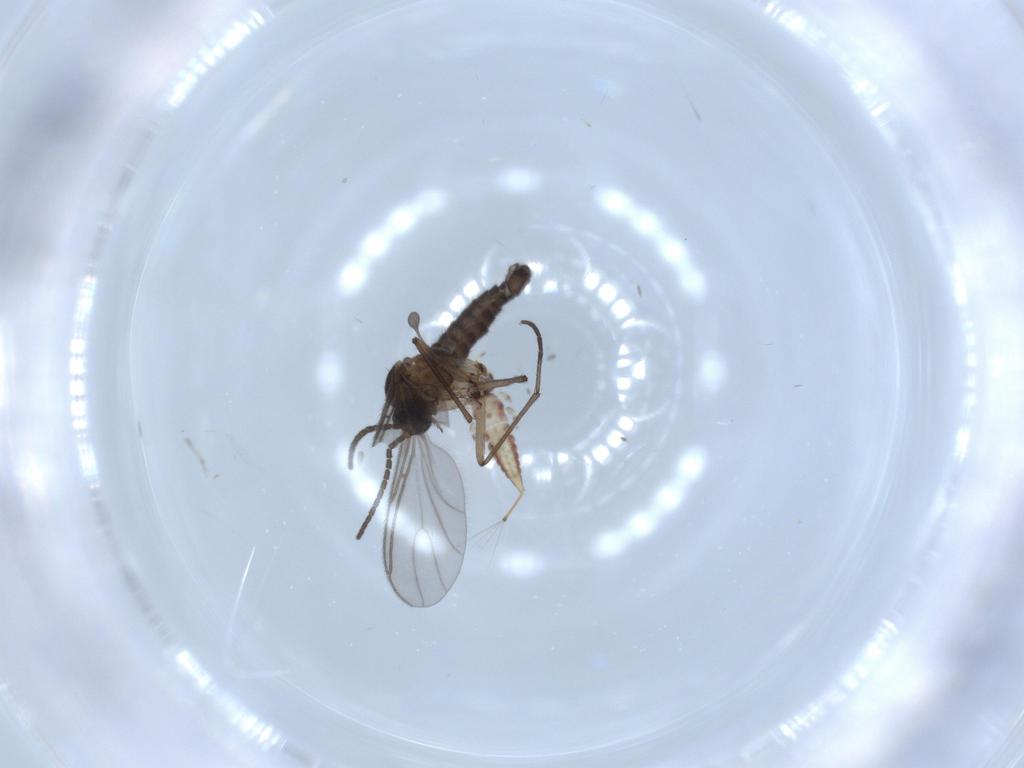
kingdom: Animalia
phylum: Arthropoda
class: Insecta
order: Diptera
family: Sciaridae
